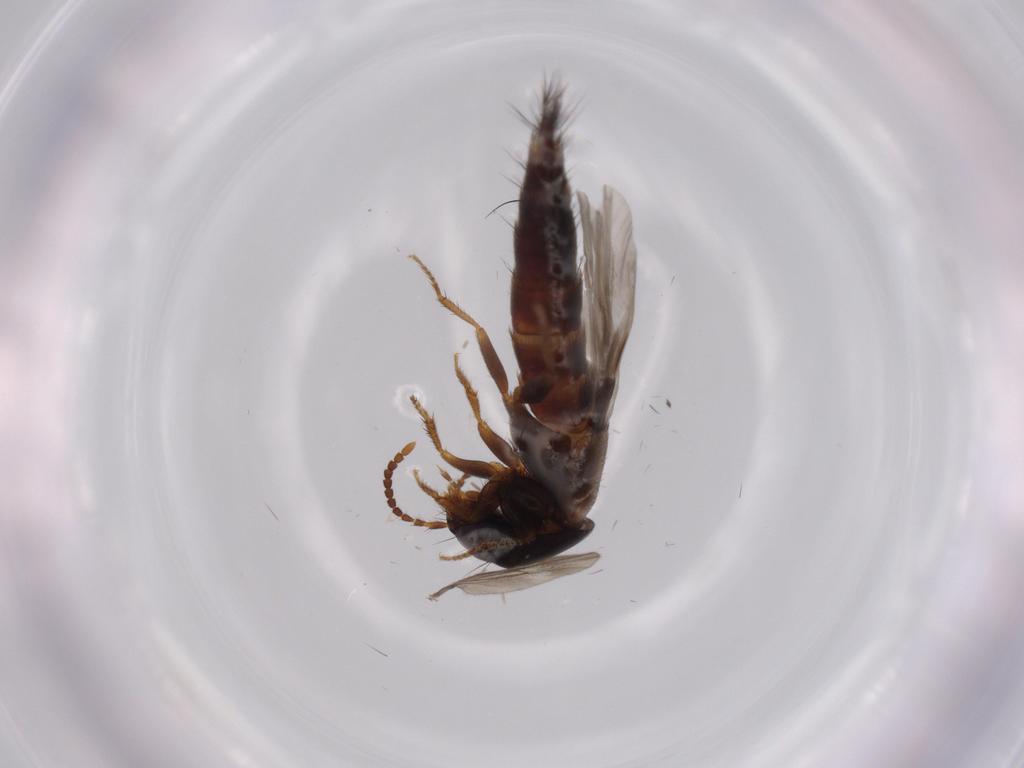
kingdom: Animalia
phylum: Arthropoda
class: Insecta
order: Coleoptera
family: Staphylinidae
